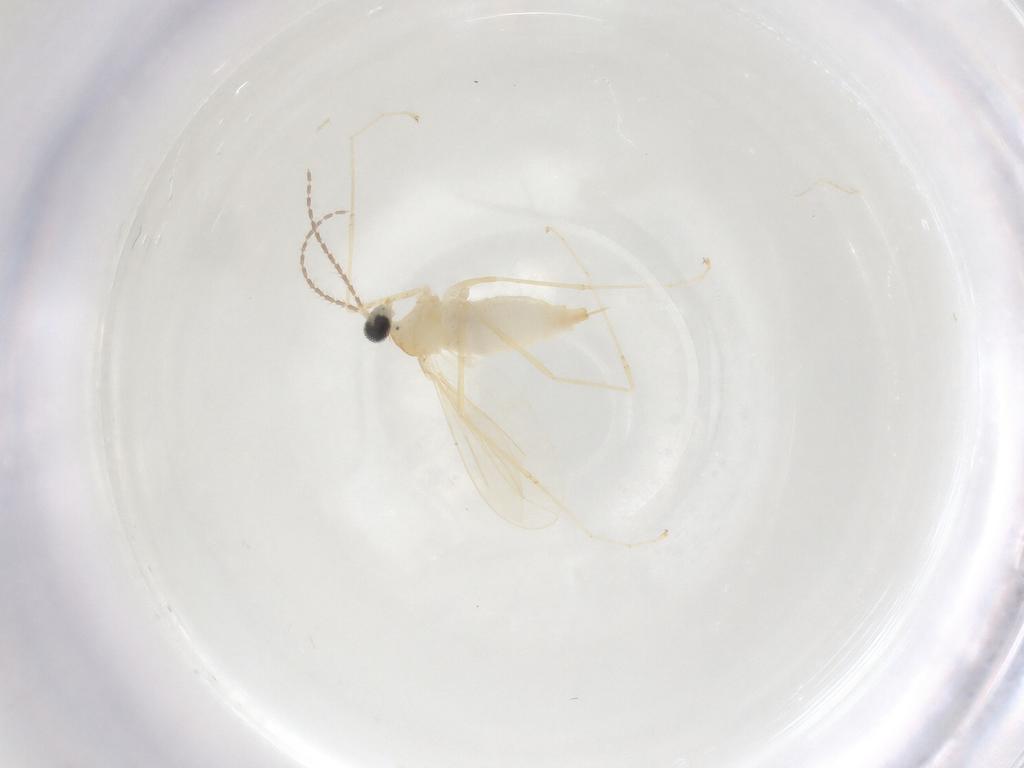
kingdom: Animalia
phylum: Arthropoda
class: Insecta
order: Diptera
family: Cecidomyiidae
